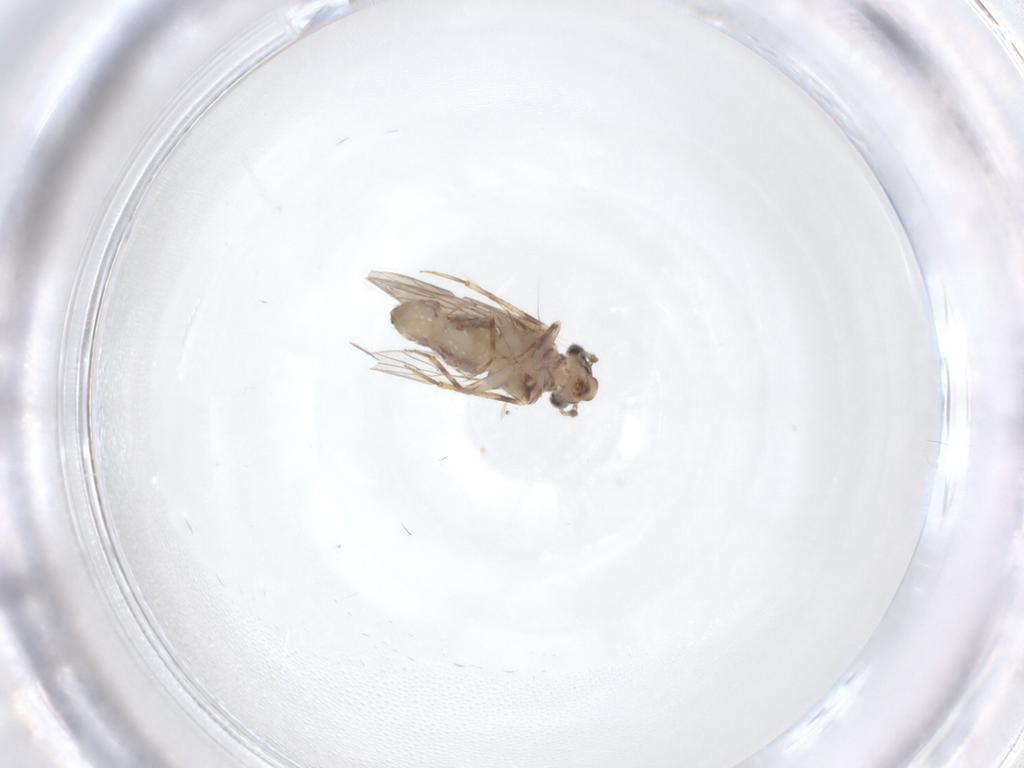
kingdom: Animalia
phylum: Arthropoda
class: Insecta
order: Psocodea
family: Lepidopsocidae
